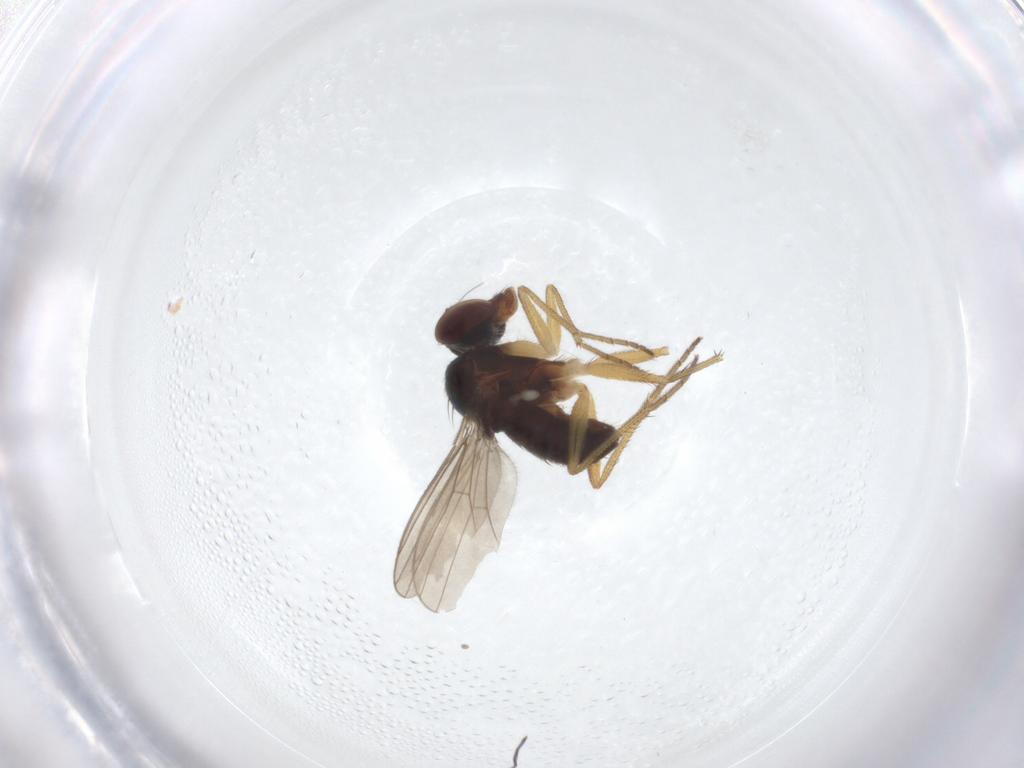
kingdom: Animalia
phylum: Arthropoda
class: Insecta
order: Diptera
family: Dolichopodidae
